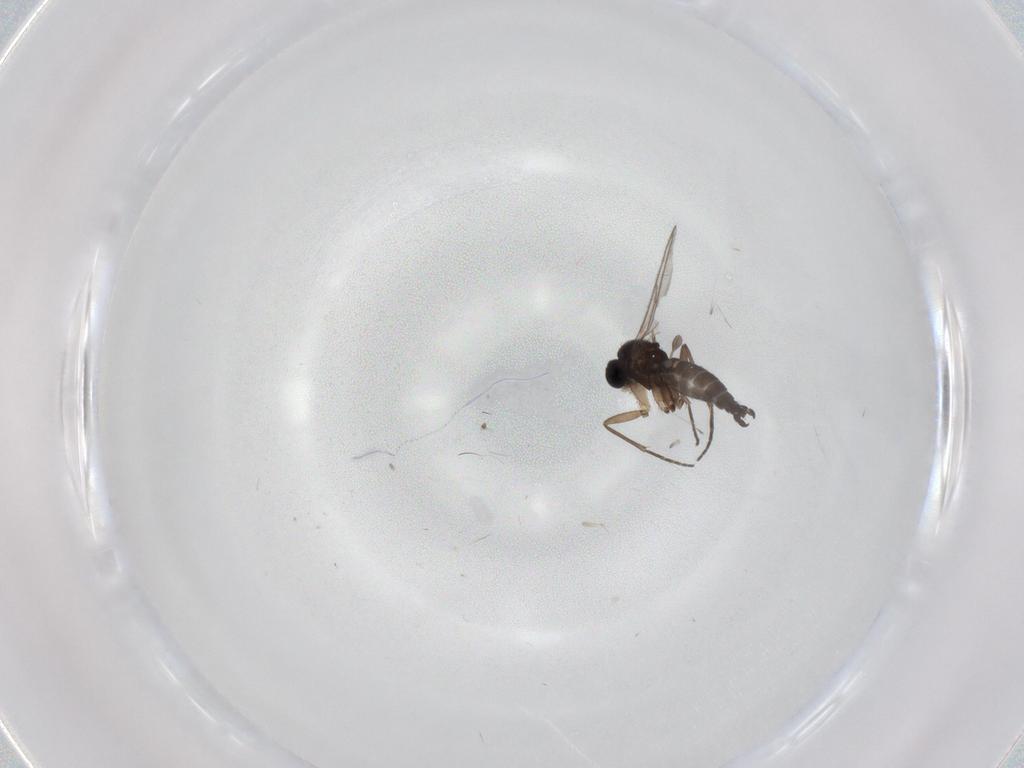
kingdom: Animalia
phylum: Arthropoda
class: Insecta
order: Diptera
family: Sciaridae
